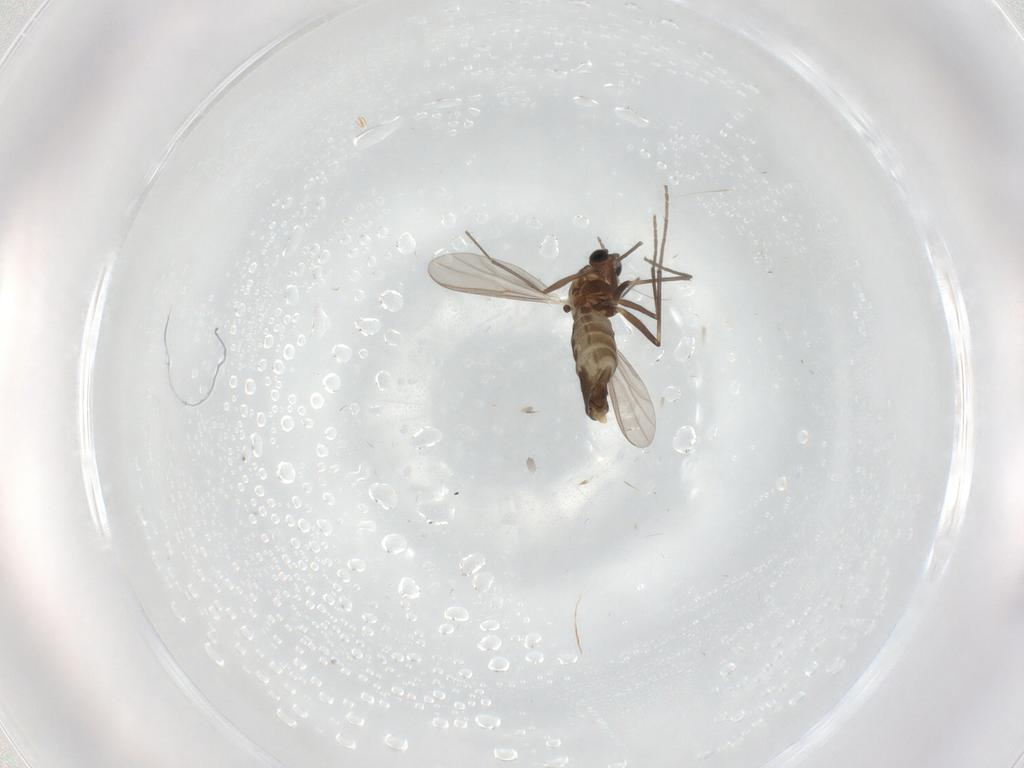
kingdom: Animalia
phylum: Arthropoda
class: Insecta
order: Diptera
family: Chironomidae
